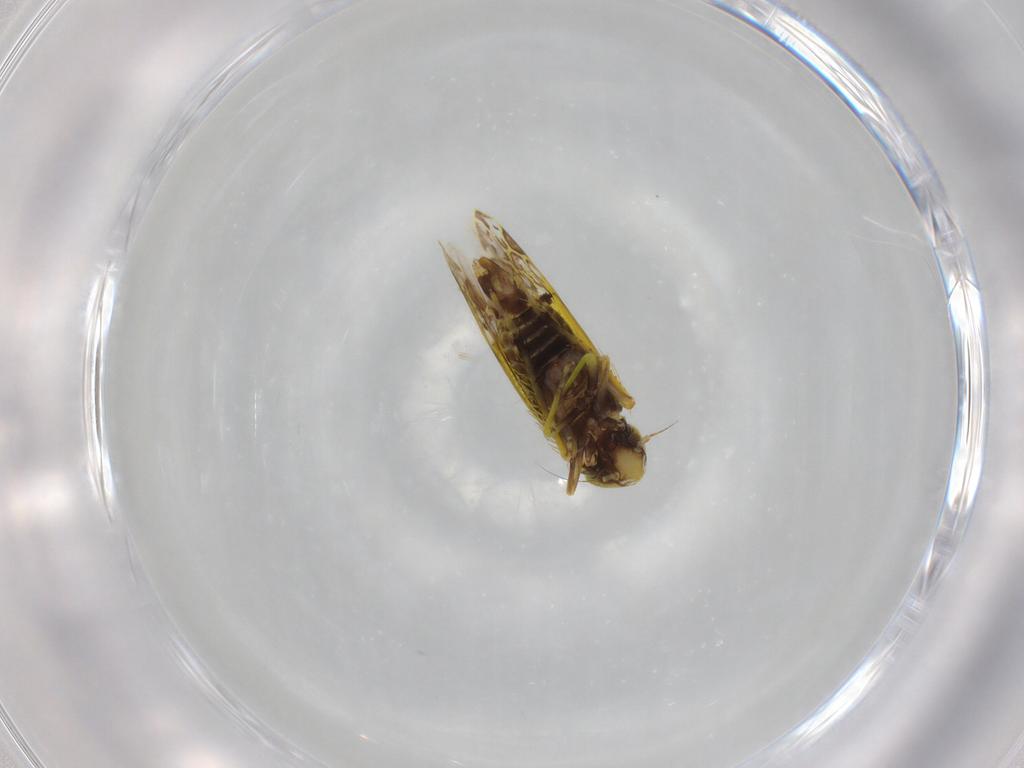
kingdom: Animalia
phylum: Arthropoda
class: Insecta
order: Hemiptera
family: Cicadellidae
